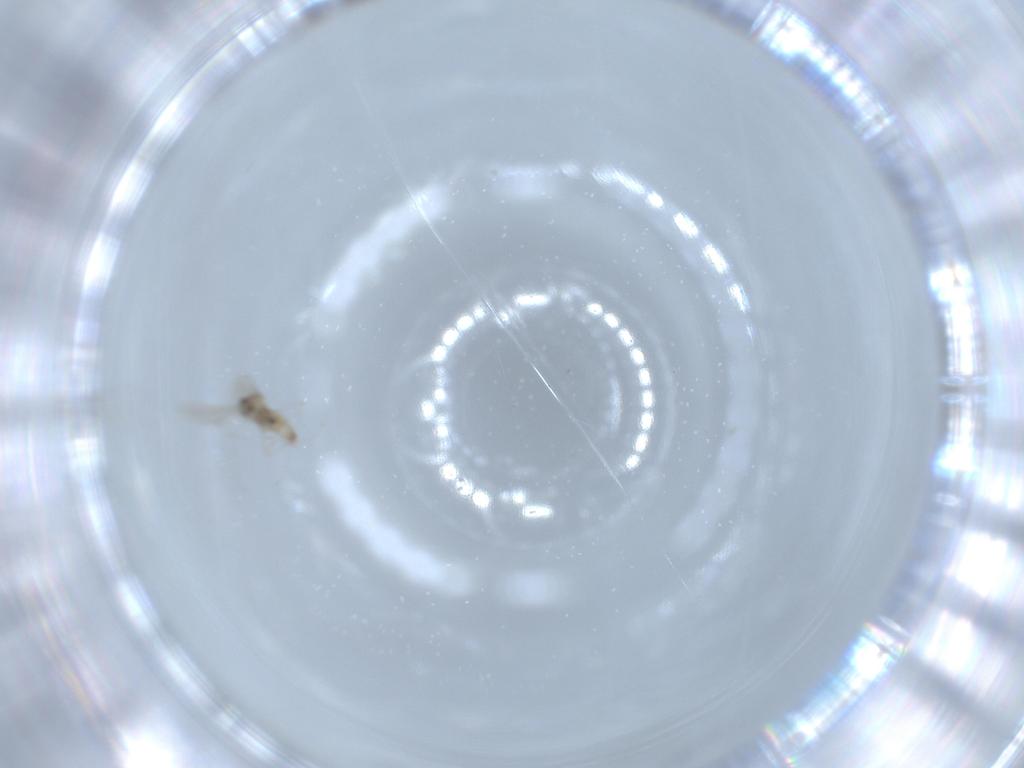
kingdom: Animalia
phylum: Arthropoda
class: Insecta
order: Diptera
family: Cecidomyiidae
